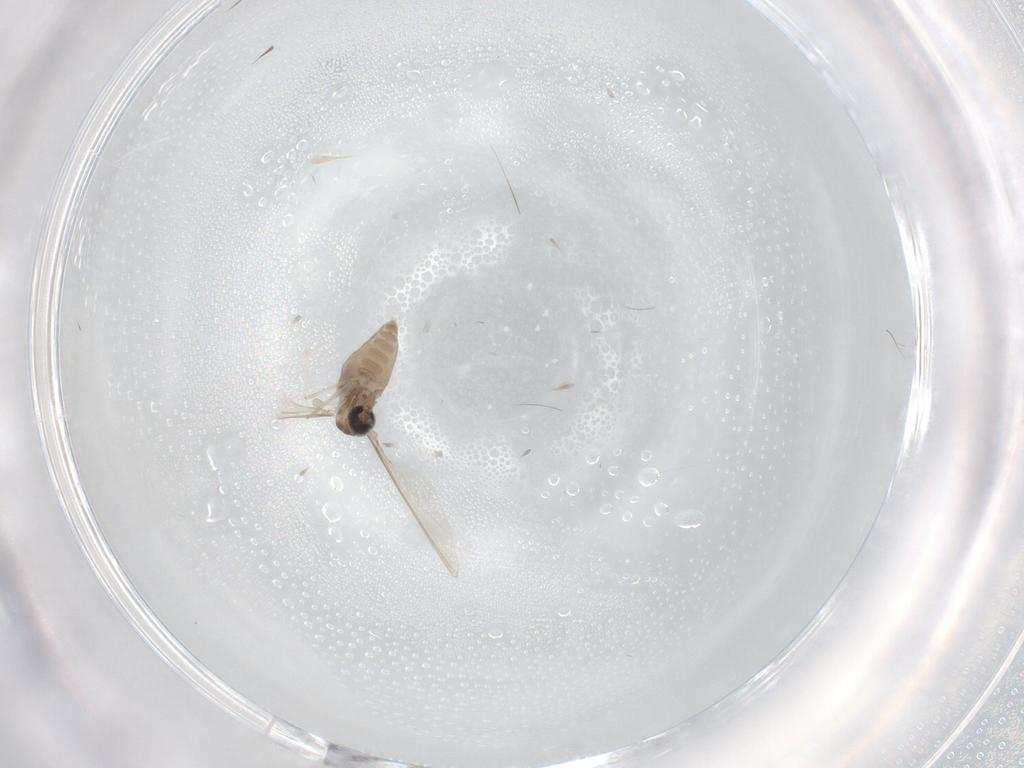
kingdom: Animalia
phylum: Arthropoda
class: Insecta
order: Diptera
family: Cecidomyiidae
